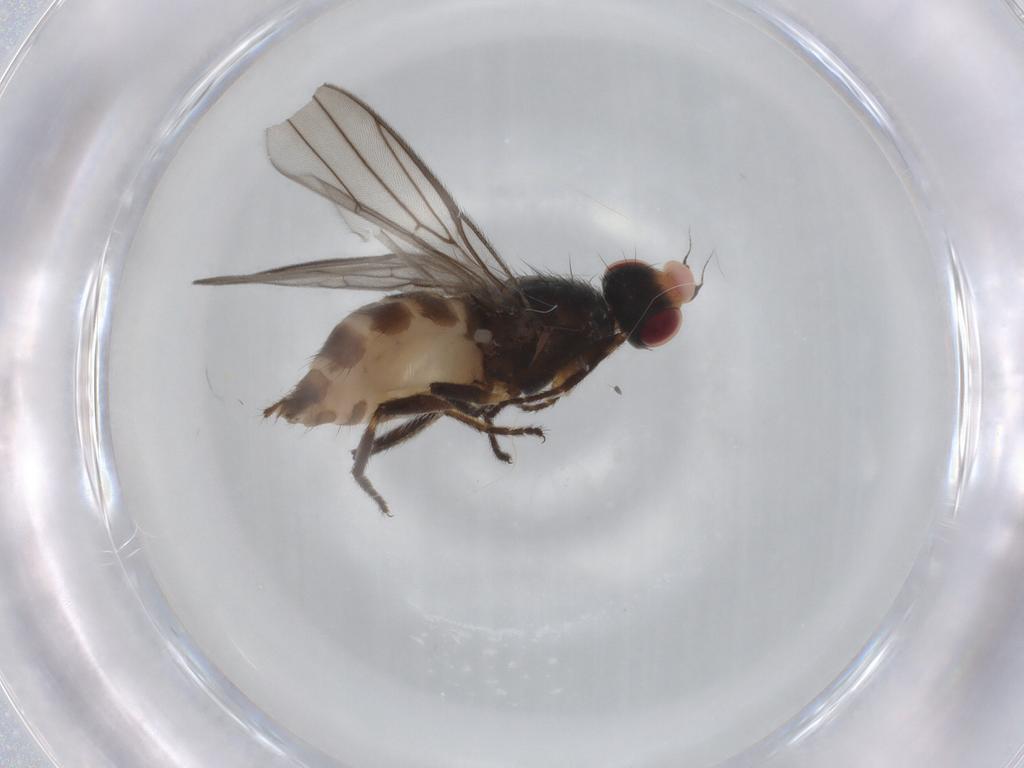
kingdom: Animalia
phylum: Arthropoda
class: Insecta
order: Diptera
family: Chloropidae
